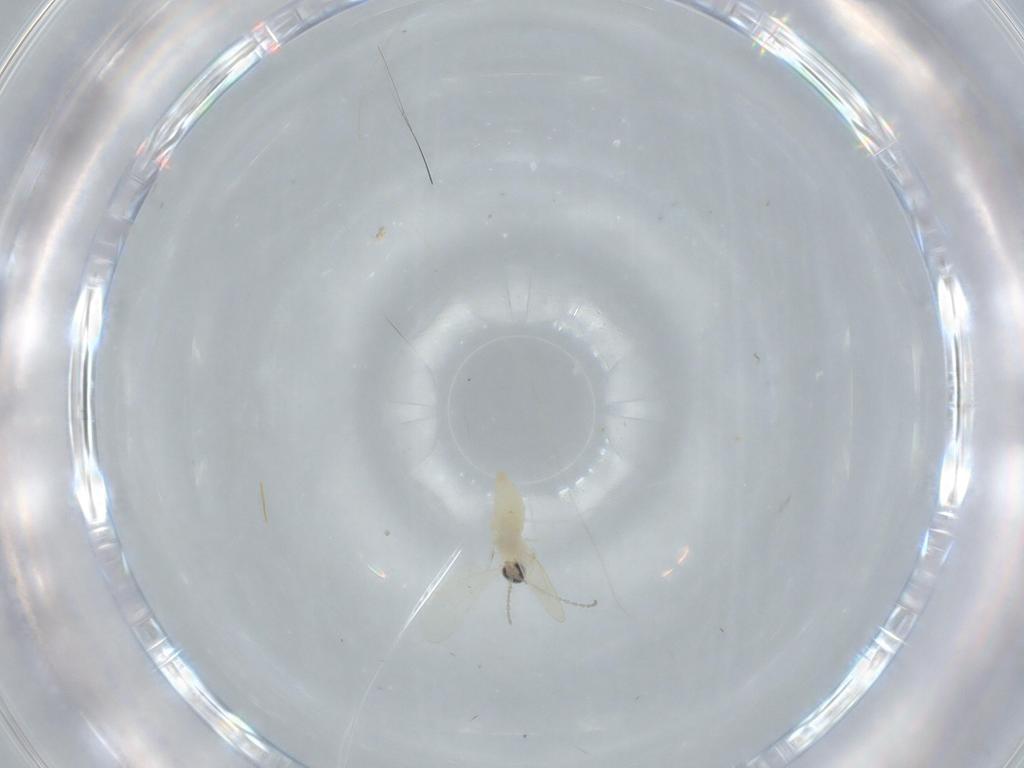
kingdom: Animalia
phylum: Arthropoda
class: Insecta
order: Diptera
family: Cecidomyiidae
